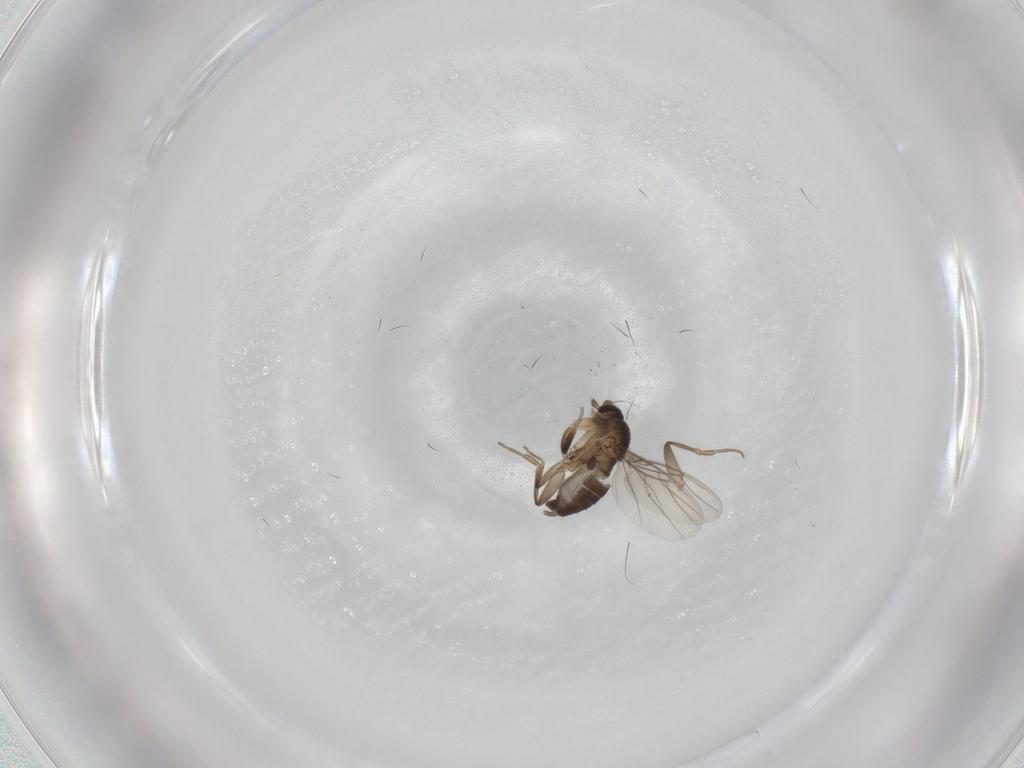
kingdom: Animalia
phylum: Arthropoda
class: Insecta
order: Diptera
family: Phoridae
